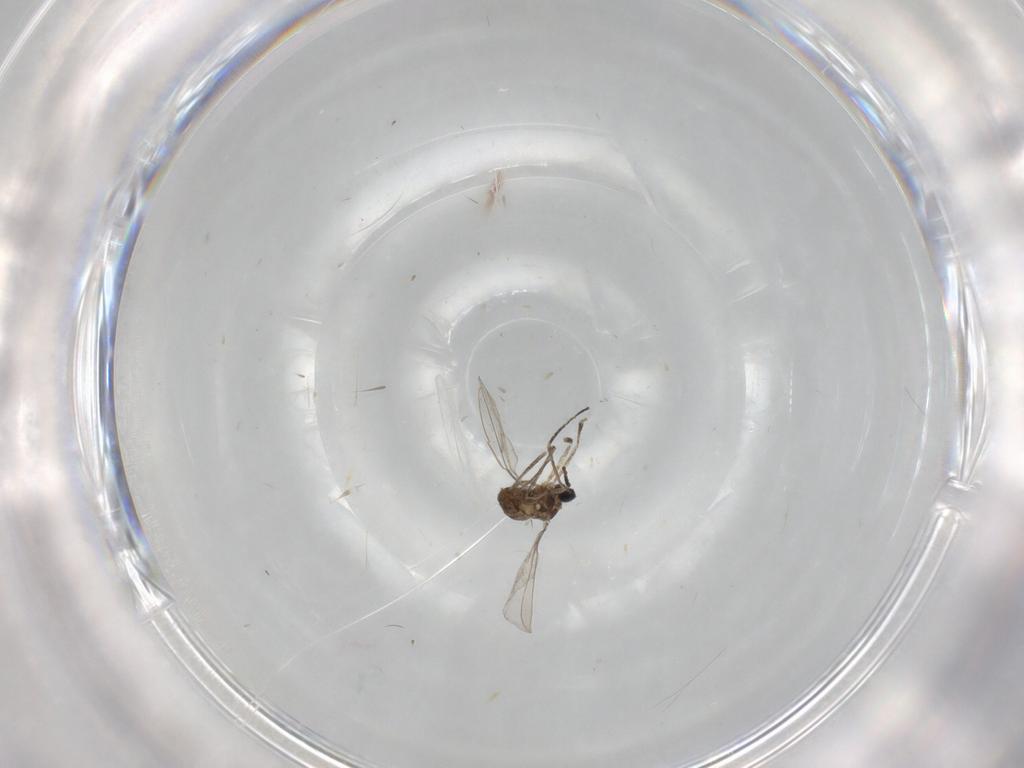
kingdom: Animalia
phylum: Arthropoda
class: Insecta
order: Diptera
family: Cecidomyiidae
